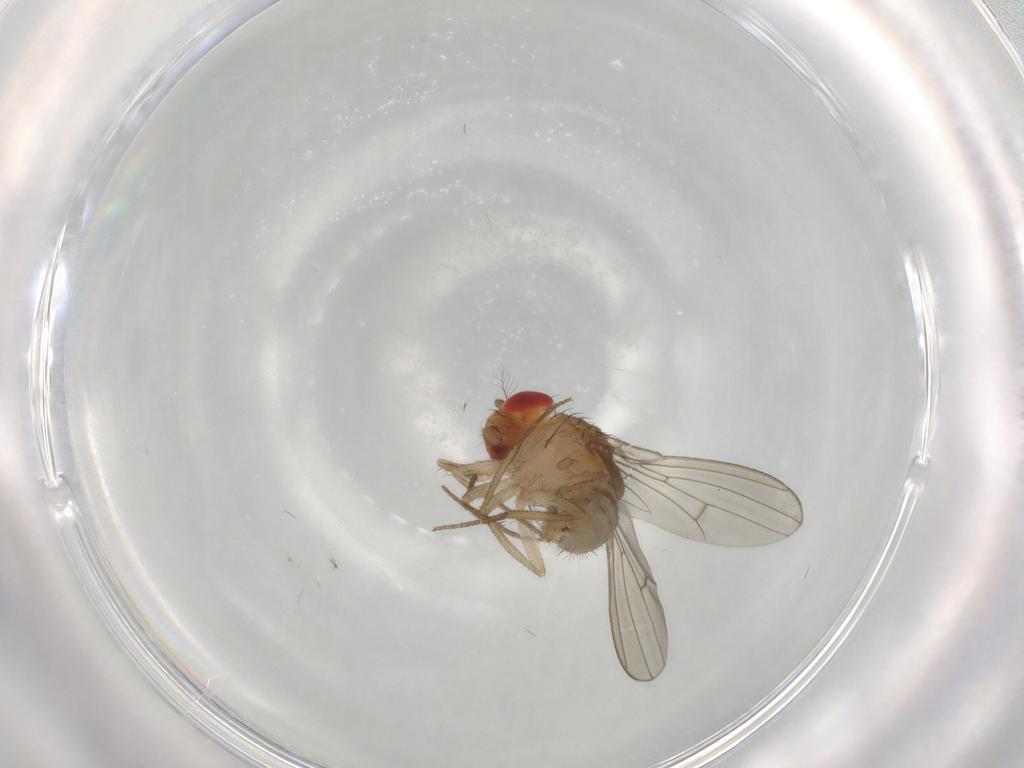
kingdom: Animalia
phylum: Arthropoda
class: Insecta
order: Diptera
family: Drosophilidae
